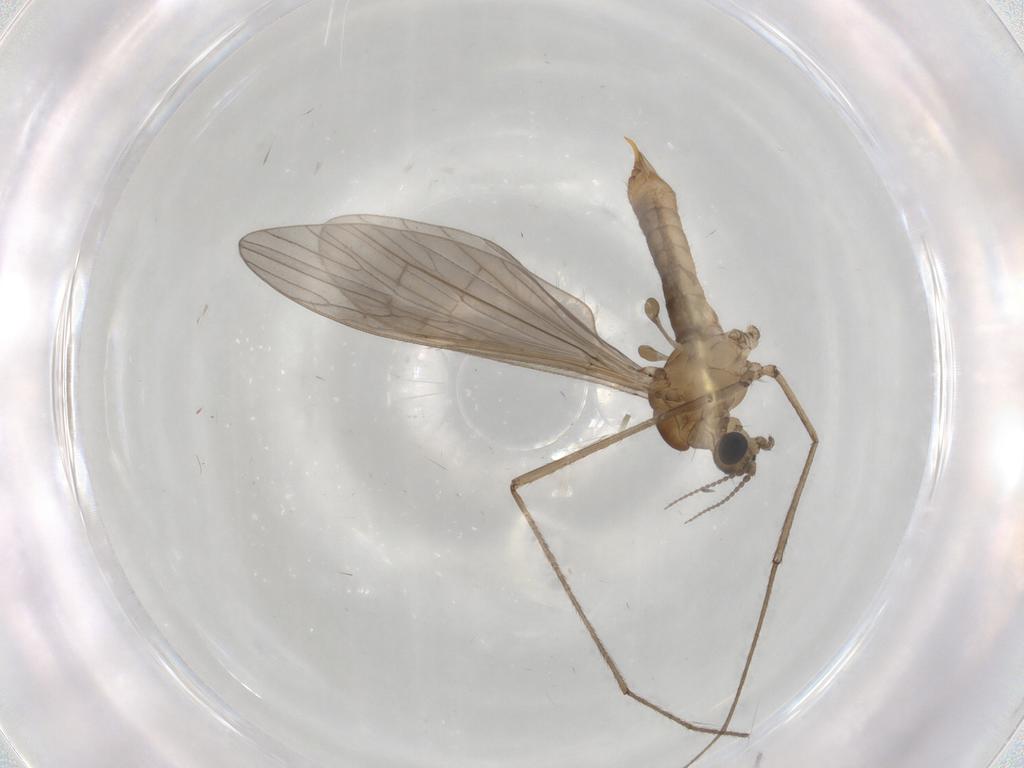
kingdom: Animalia
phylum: Arthropoda
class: Insecta
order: Diptera
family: Limoniidae
